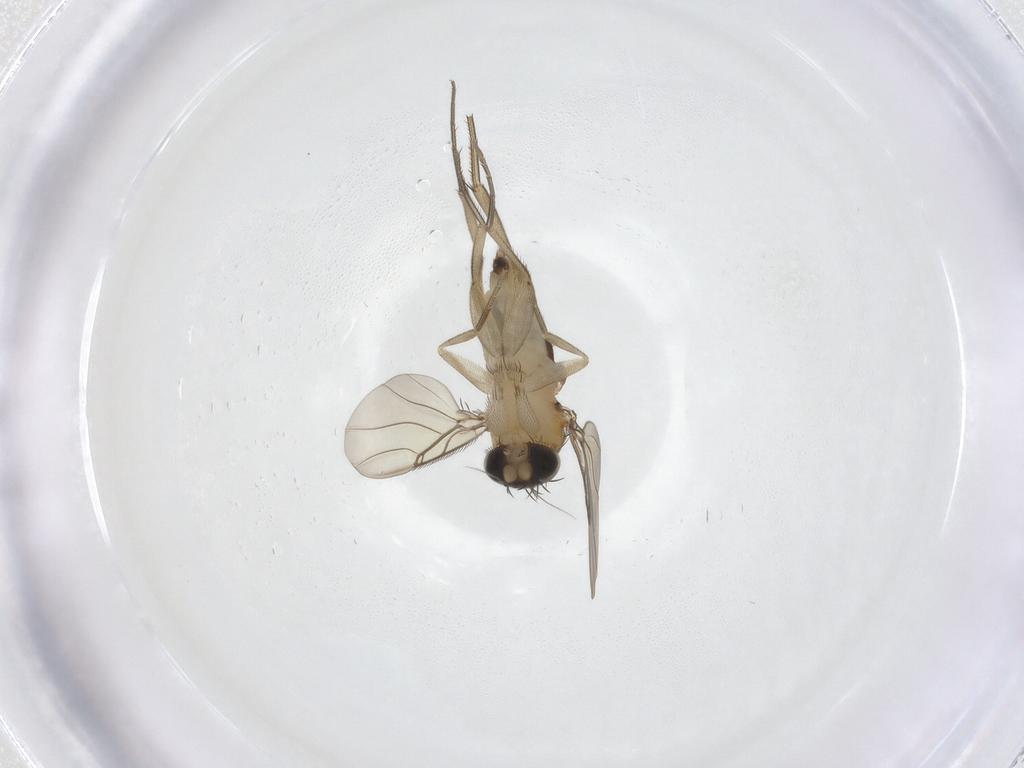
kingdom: Animalia
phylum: Arthropoda
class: Insecta
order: Diptera
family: Phoridae
